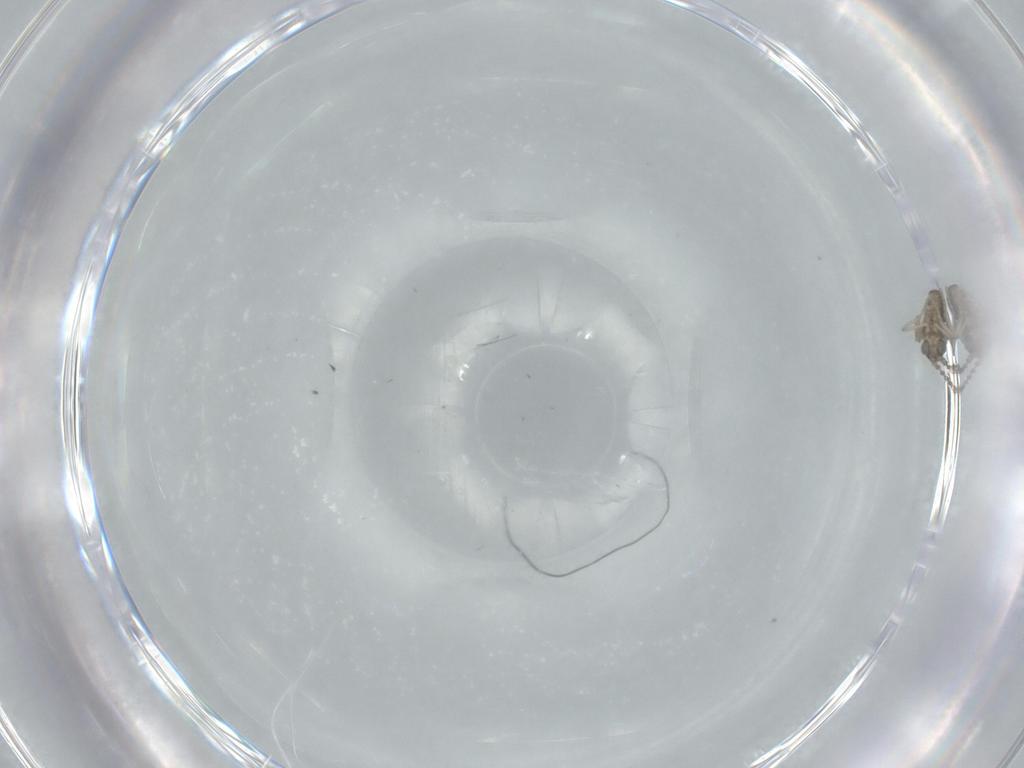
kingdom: Animalia
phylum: Arthropoda
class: Insecta
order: Diptera
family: Cecidomyiidae
